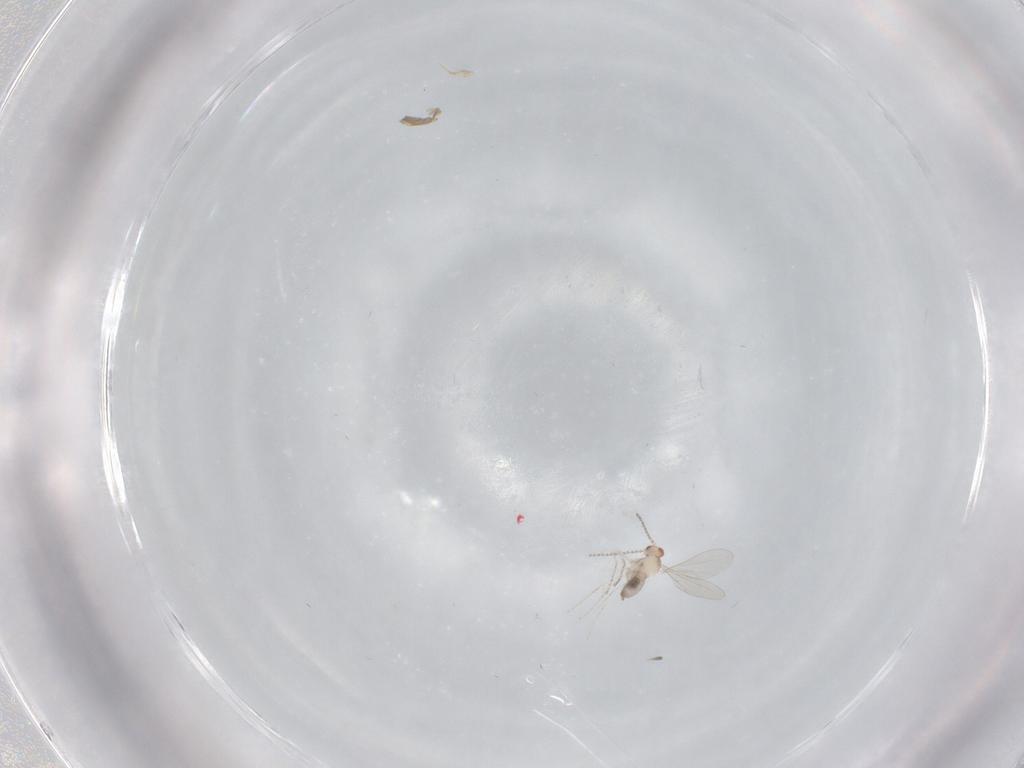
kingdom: Animalia
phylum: Arthropoda
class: Insecta
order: Diptera
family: Cecidomyiidae
